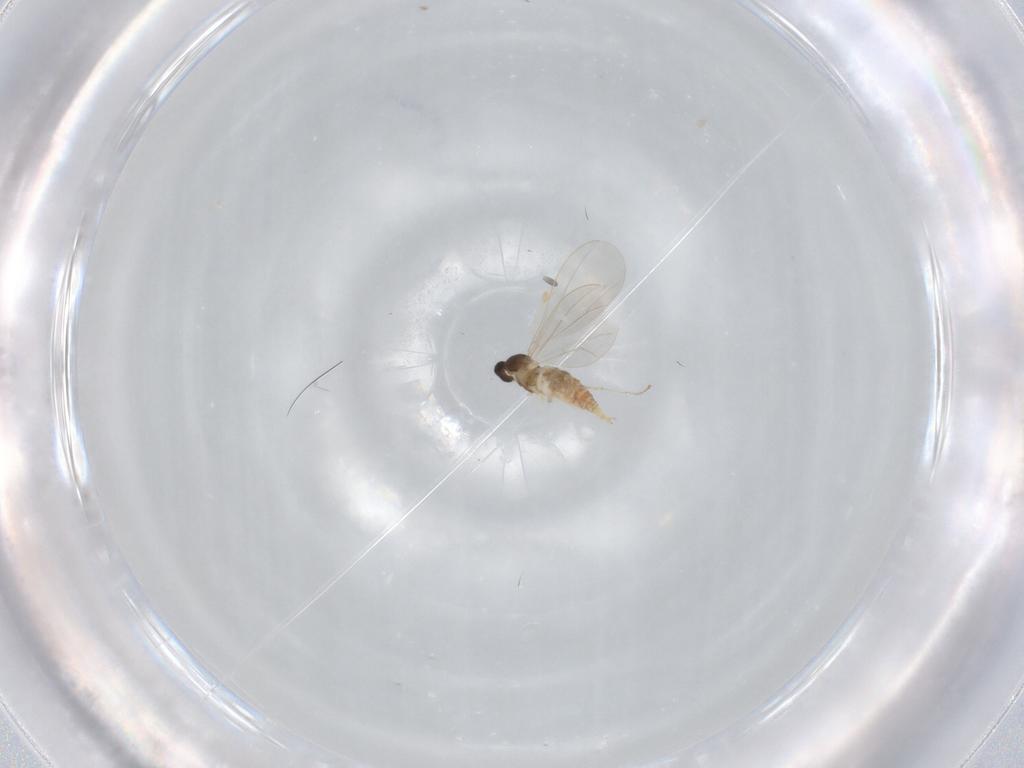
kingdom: Animalia
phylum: Arthropoda
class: Insecta
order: Diptera
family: Cecidomyiidae
